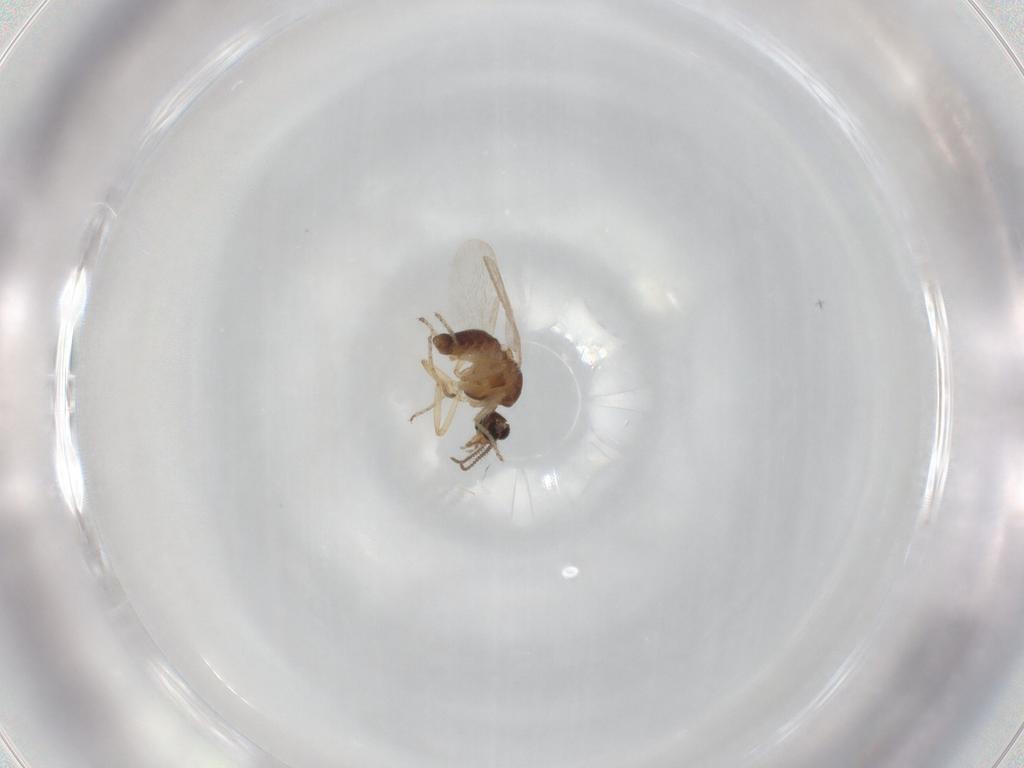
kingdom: Animalia
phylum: Arthropoda
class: Insecta
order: Diptera
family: Ceratopogonidae
